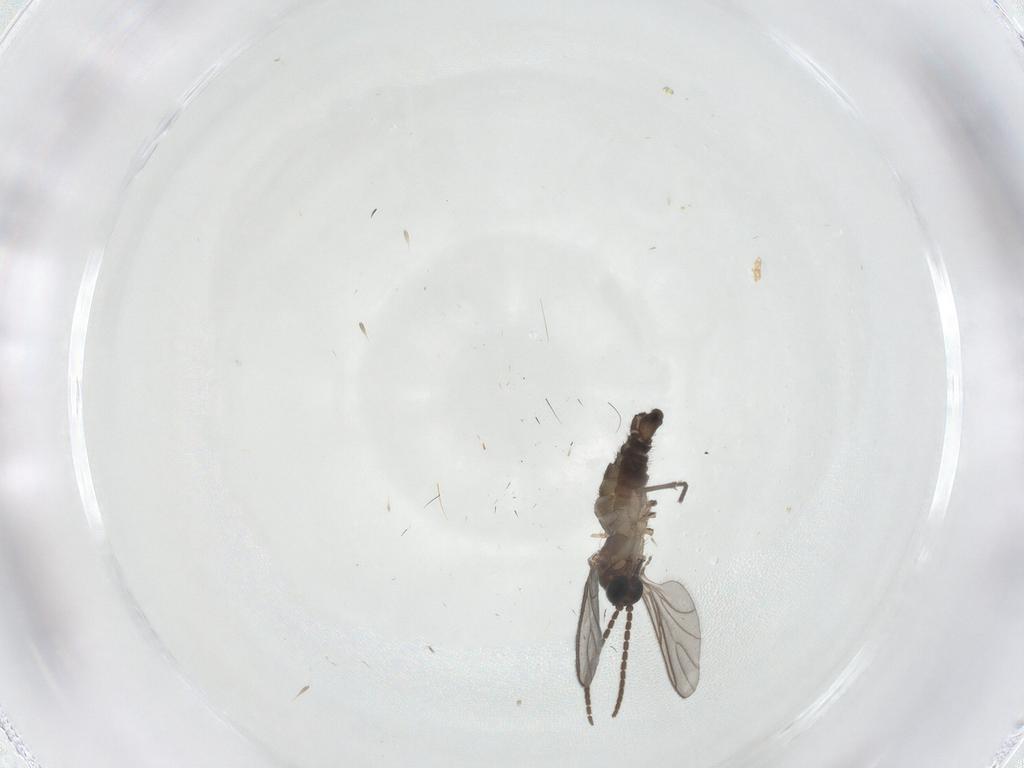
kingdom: Animalia
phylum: Arthropoda
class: Insecta
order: Diptera
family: Sciaridae
